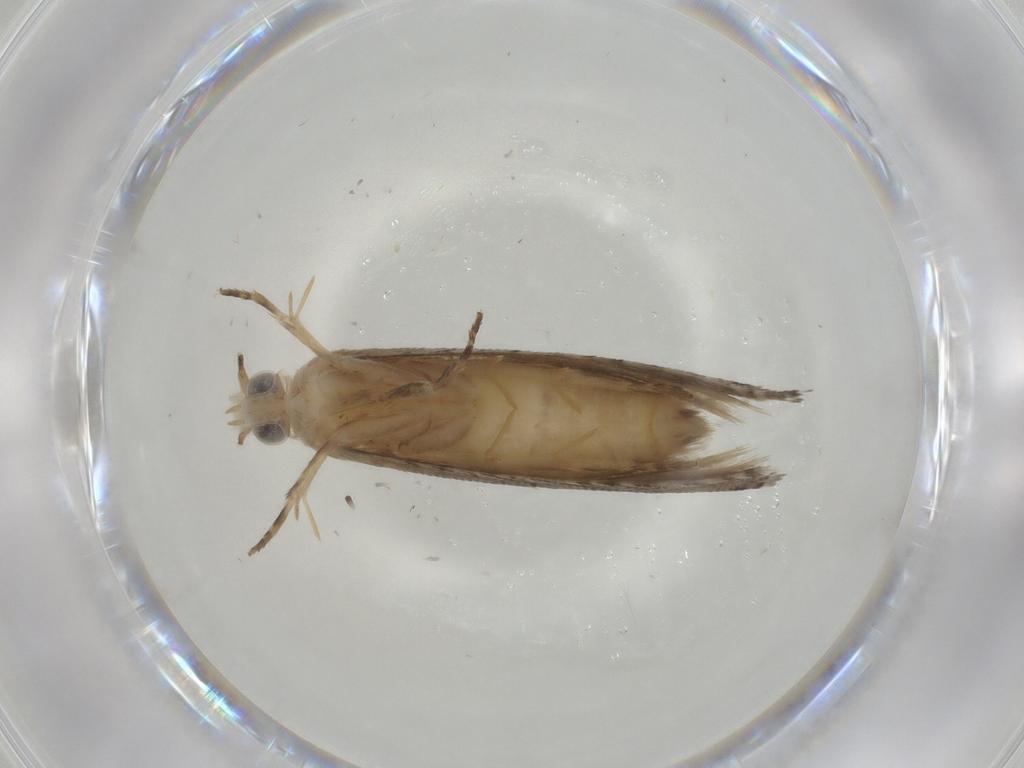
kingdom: Animalia
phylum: Arthropoda
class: Insecta
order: Lepidoptera
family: Tortricidae
